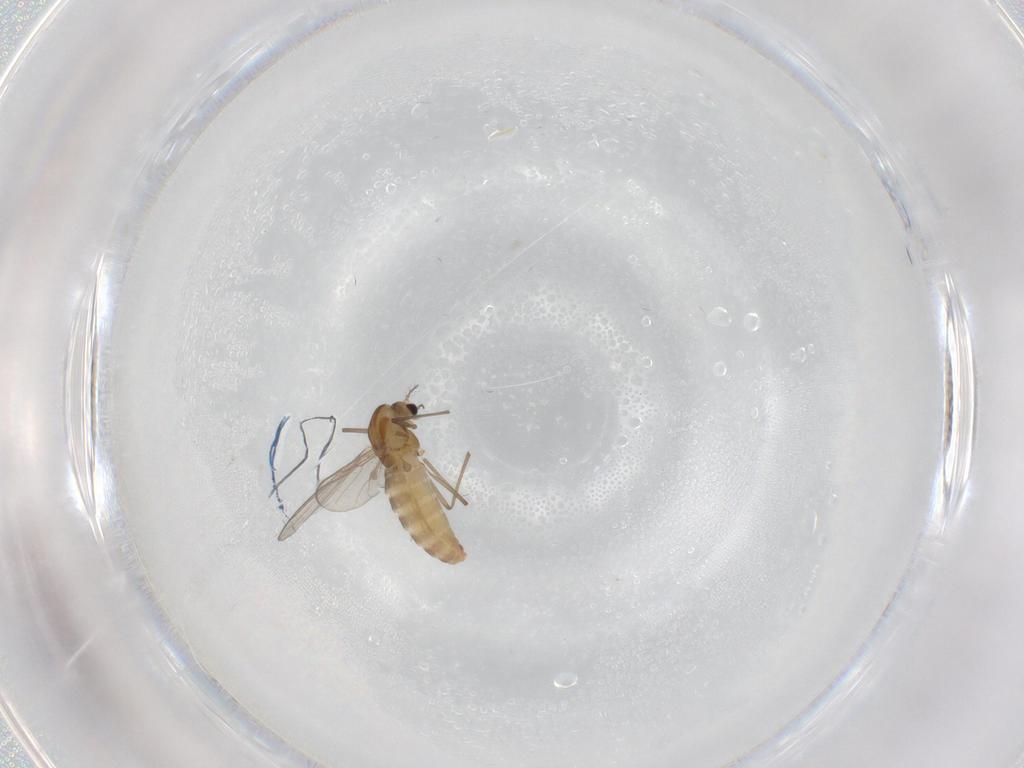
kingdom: Animalia
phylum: Arthropoda
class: Insecta
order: Diptera
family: Chironomidae
